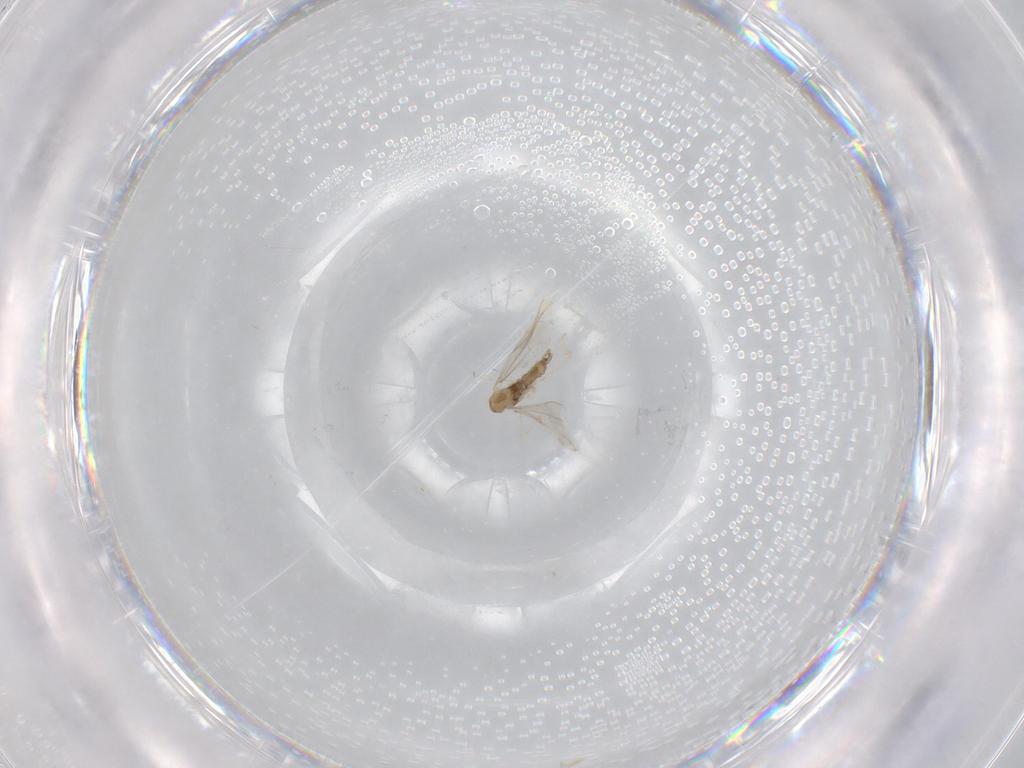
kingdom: Animalia
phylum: Arthropoda
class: Insecta
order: Diptera
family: Cecidomyiidae
